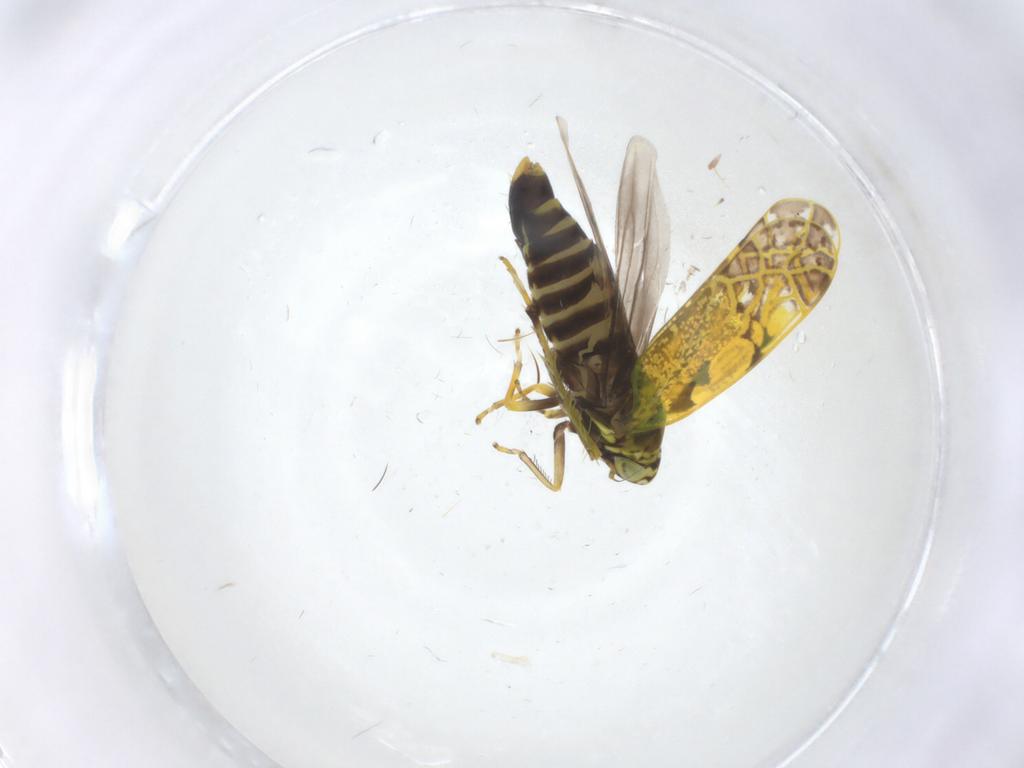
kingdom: Animalia
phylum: Arthropoda
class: Insecta
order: Hemiptera
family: Cicadellidae
